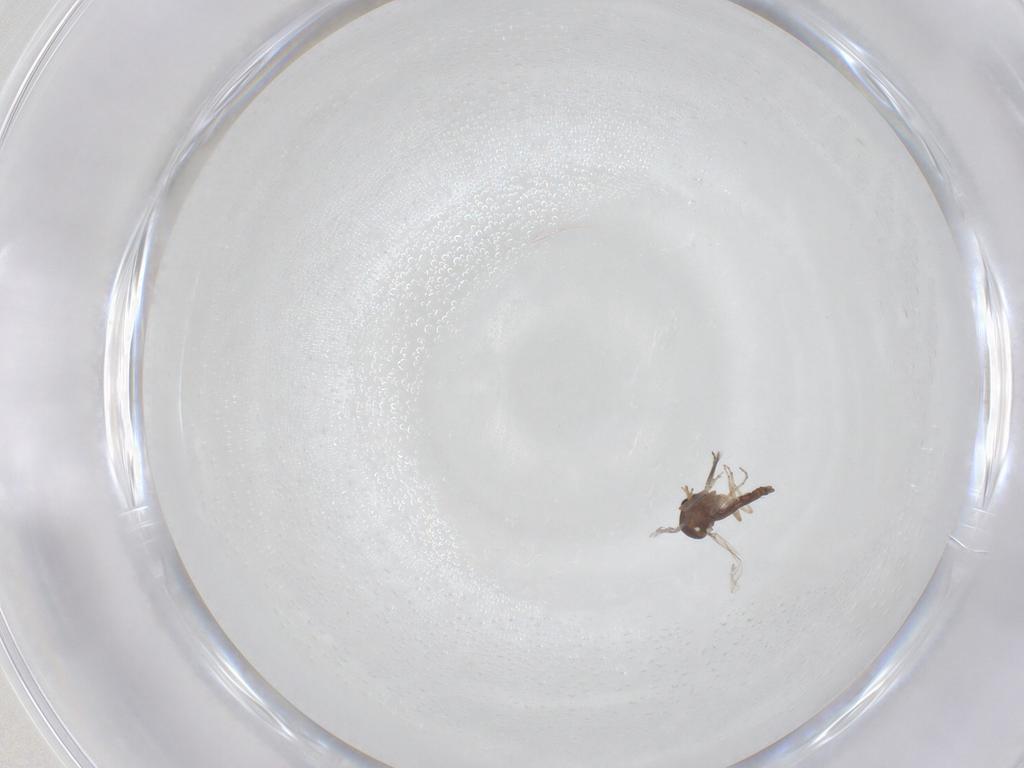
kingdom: Animalia
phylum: Arthropoda
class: Insecta
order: Diptera
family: Ceratopogonidae
